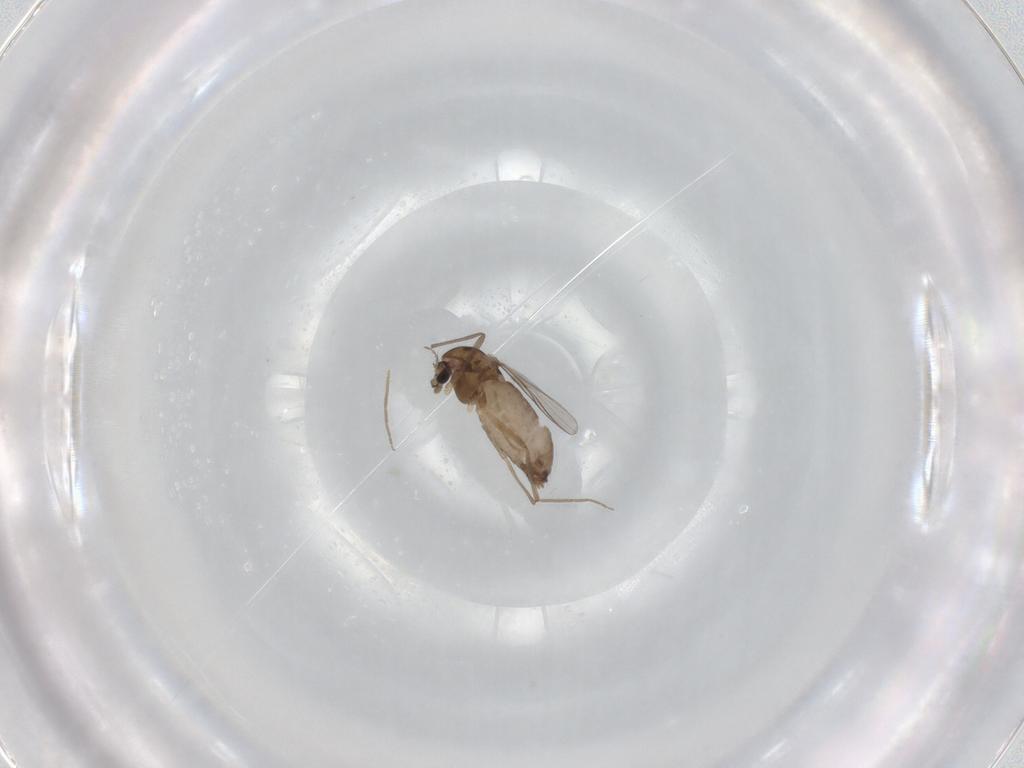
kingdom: Animalia
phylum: Arthropoda
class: Insecta
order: Diptera
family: Chironomidae
